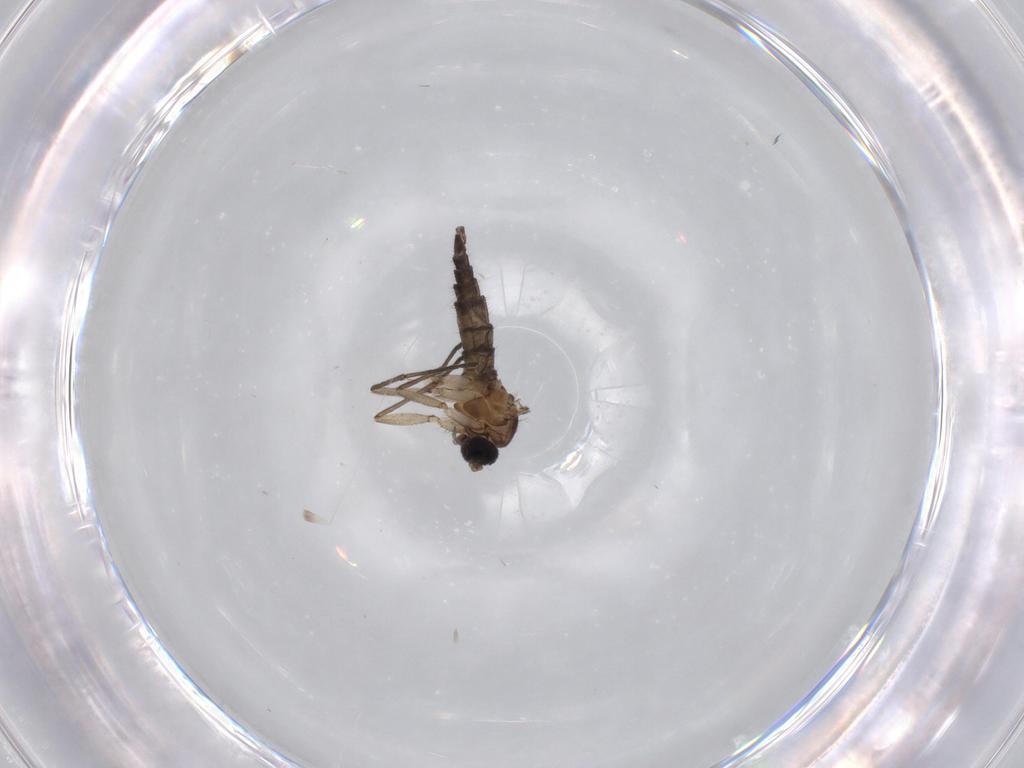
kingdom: Animalia
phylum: Arthropoda
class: Insecta
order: Diptera
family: Sciaridae
